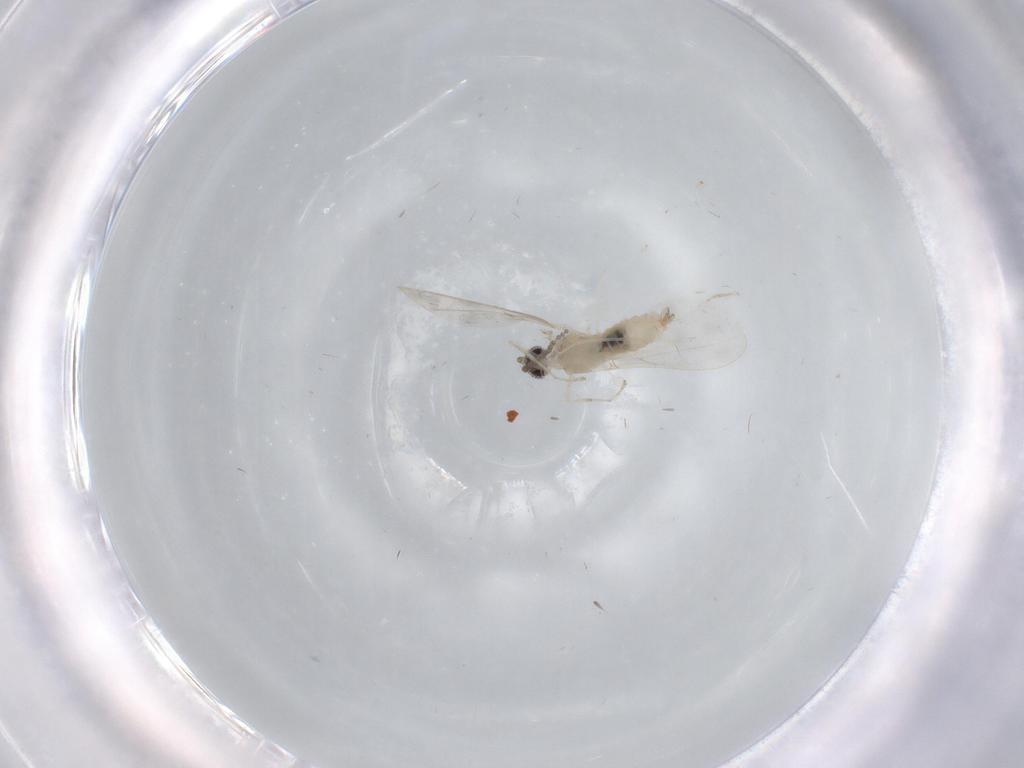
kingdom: Animalia
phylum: Arthropoda
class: Insecta
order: Diptera
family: Cecidomyiidae
